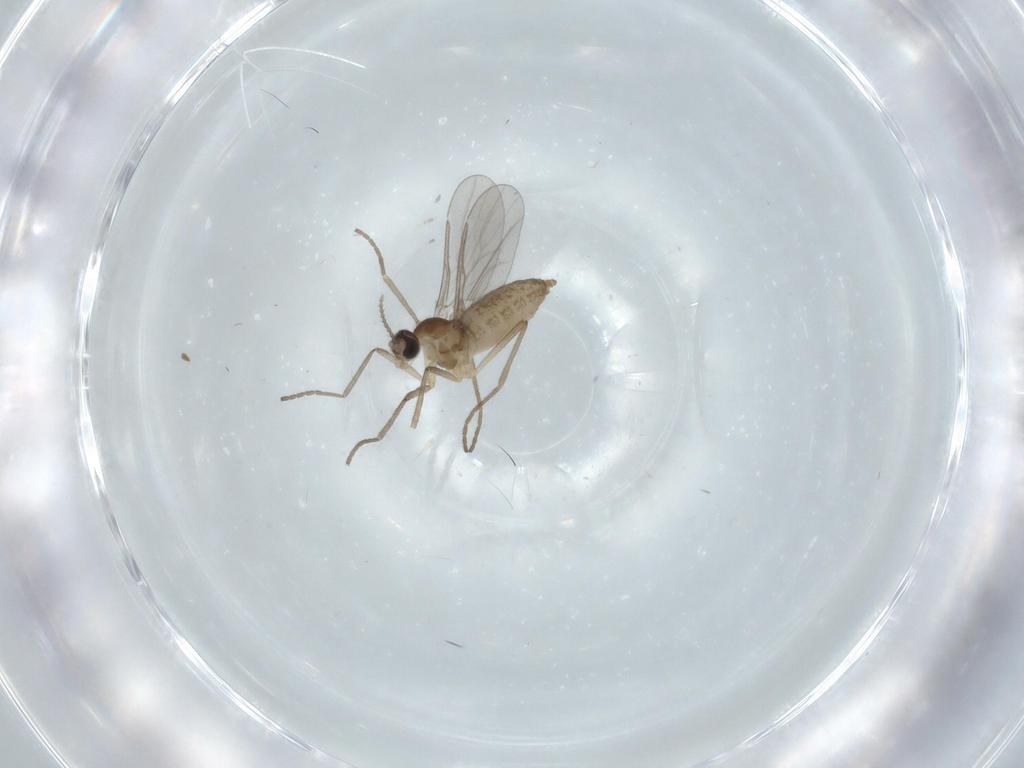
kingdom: Animalia
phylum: Arthropoda
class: Insecta
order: Diptera
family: Cecidomyiidae
